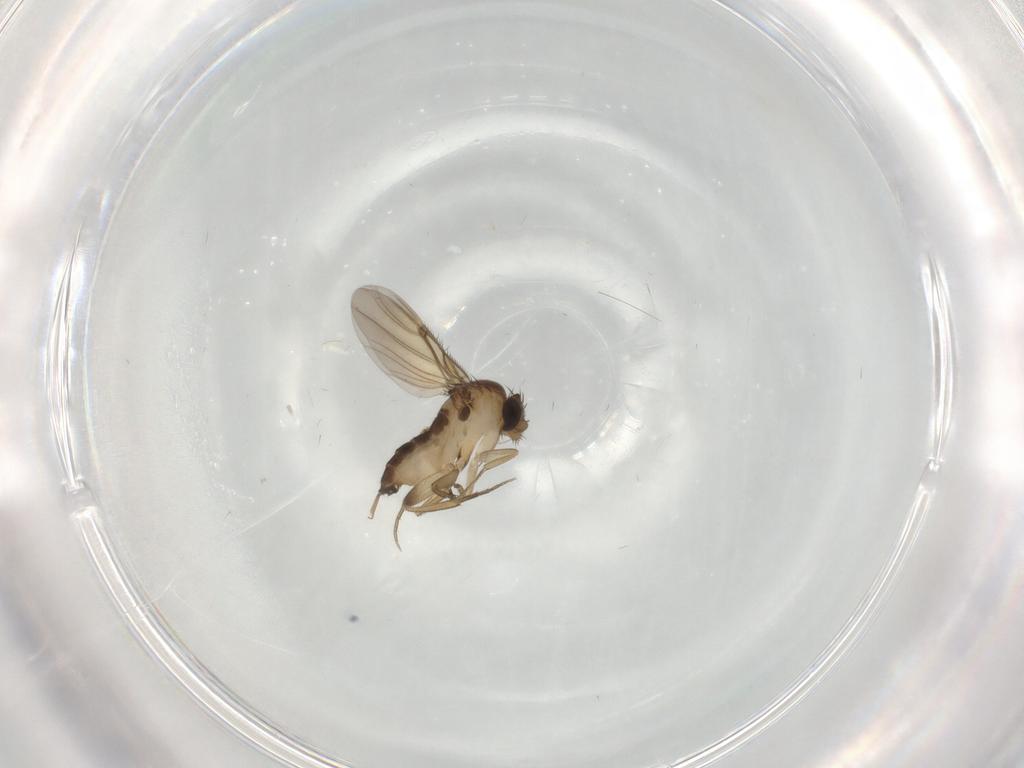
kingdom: Animalia
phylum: Arthropoda
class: Insecta
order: Diptera
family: Phoridae
